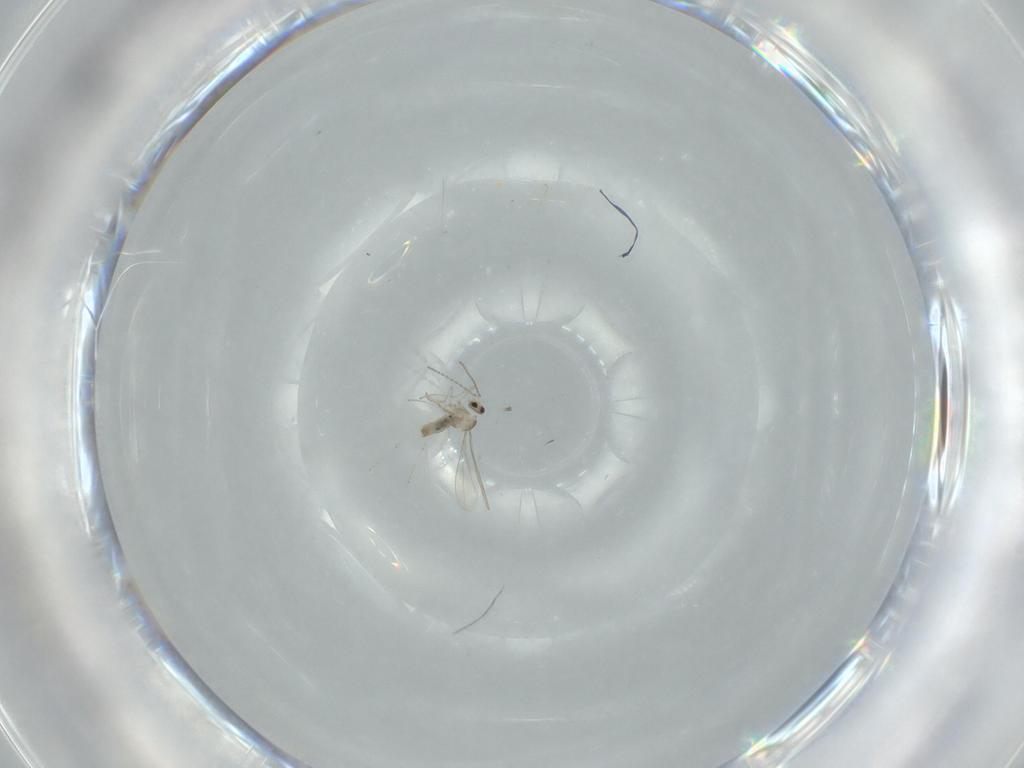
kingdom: Animalia
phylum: Arthropoda
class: Insecta
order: Diptera
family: Cecidomyiidae
